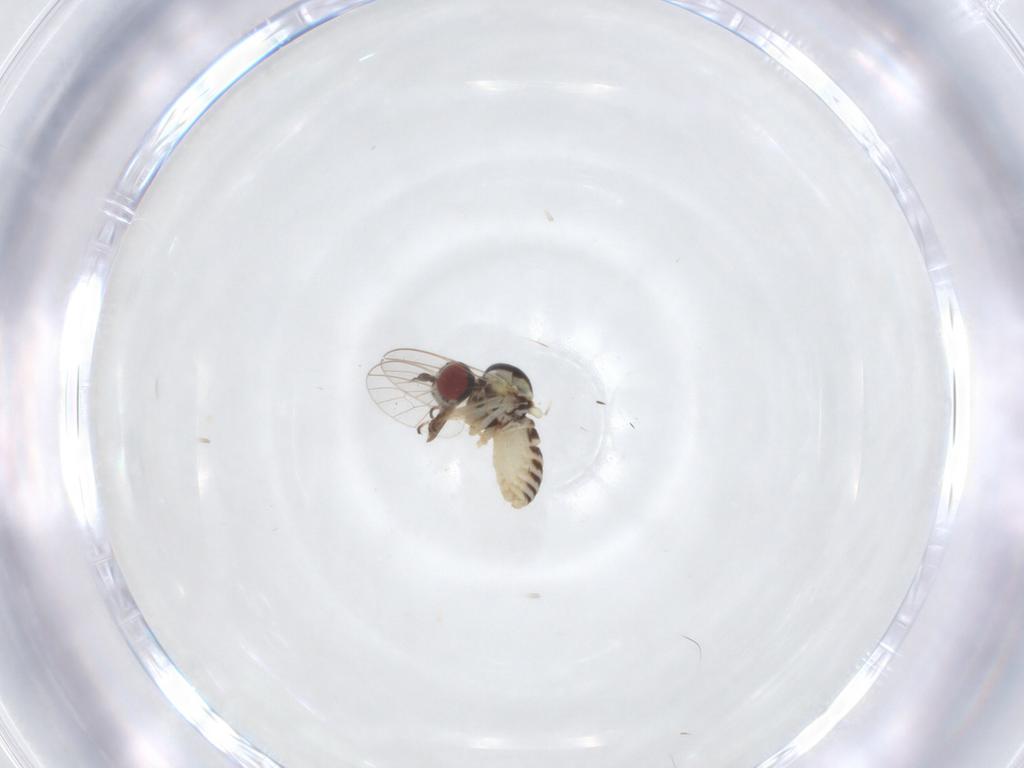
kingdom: Animalia
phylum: Arthropoda
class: Insecta
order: Diptera
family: Mythicomyiidae
